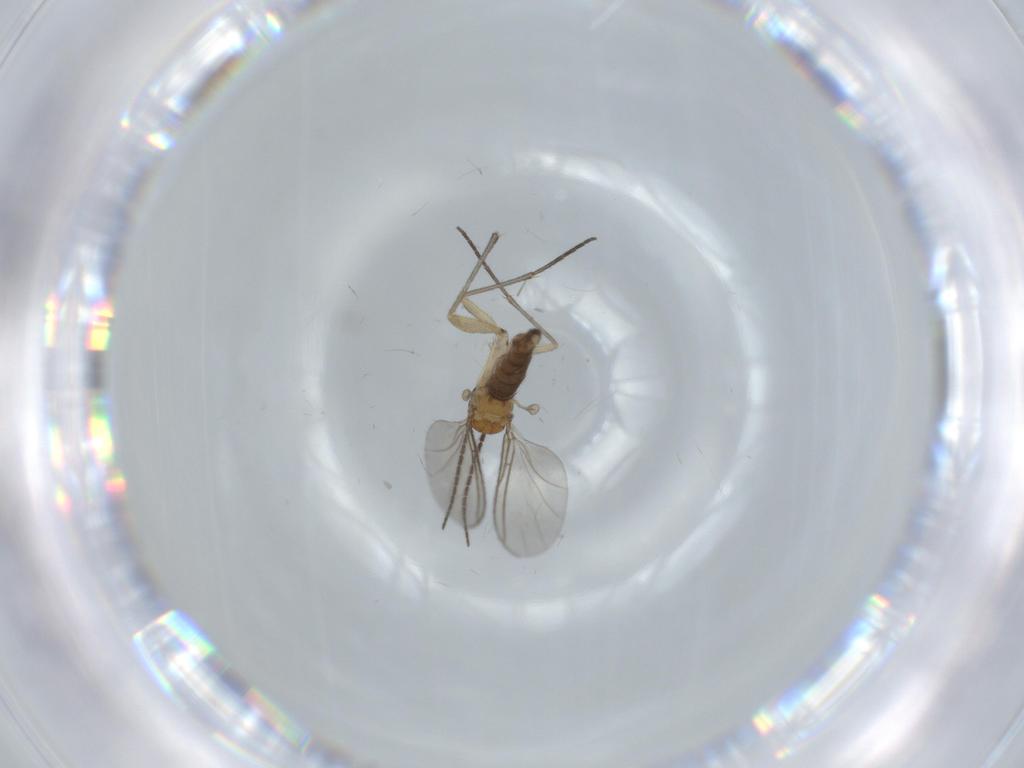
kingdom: Animalia
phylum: Arthropoda
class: Insecta
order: Diptera
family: Sciaridae
